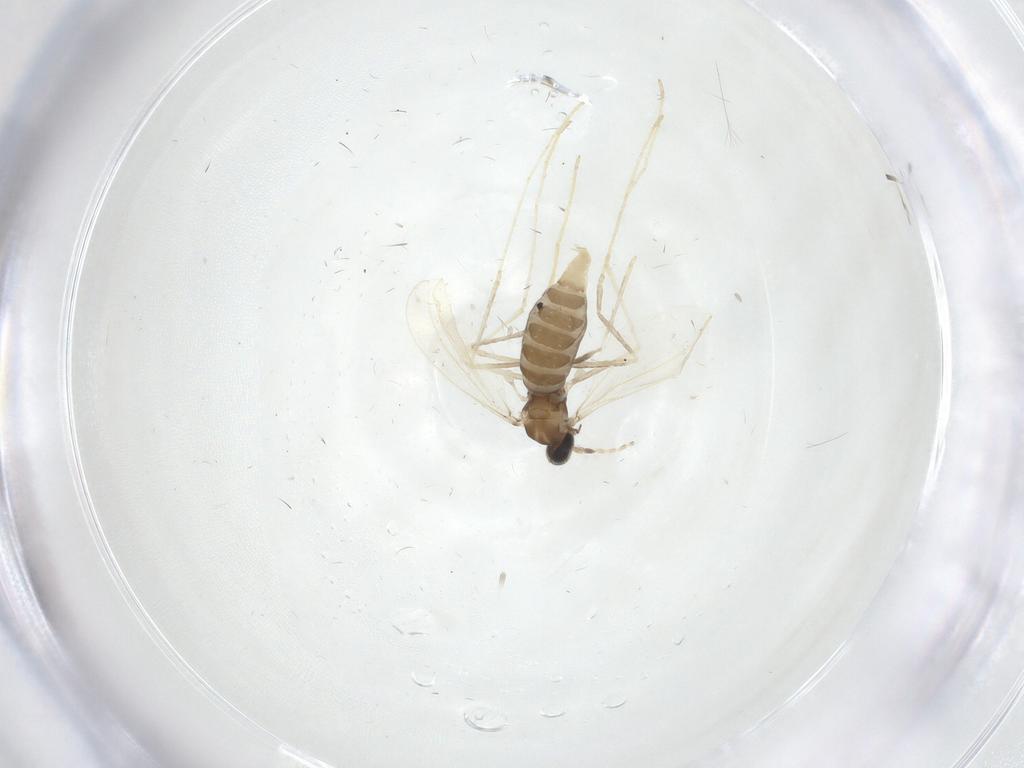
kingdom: Animalia
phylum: Arthropoda
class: Insecta
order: Diptera
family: Cecidomyiidae
